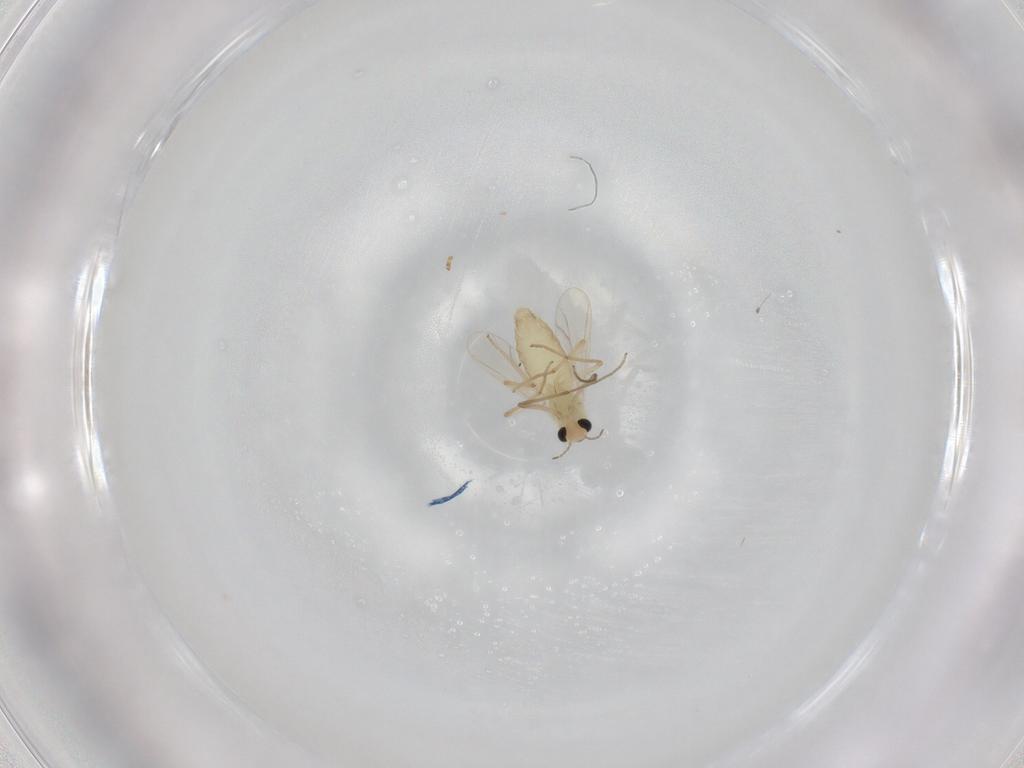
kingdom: Animalia
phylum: Arthropoda
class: Insecta
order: Diptera
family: Chironomidae
